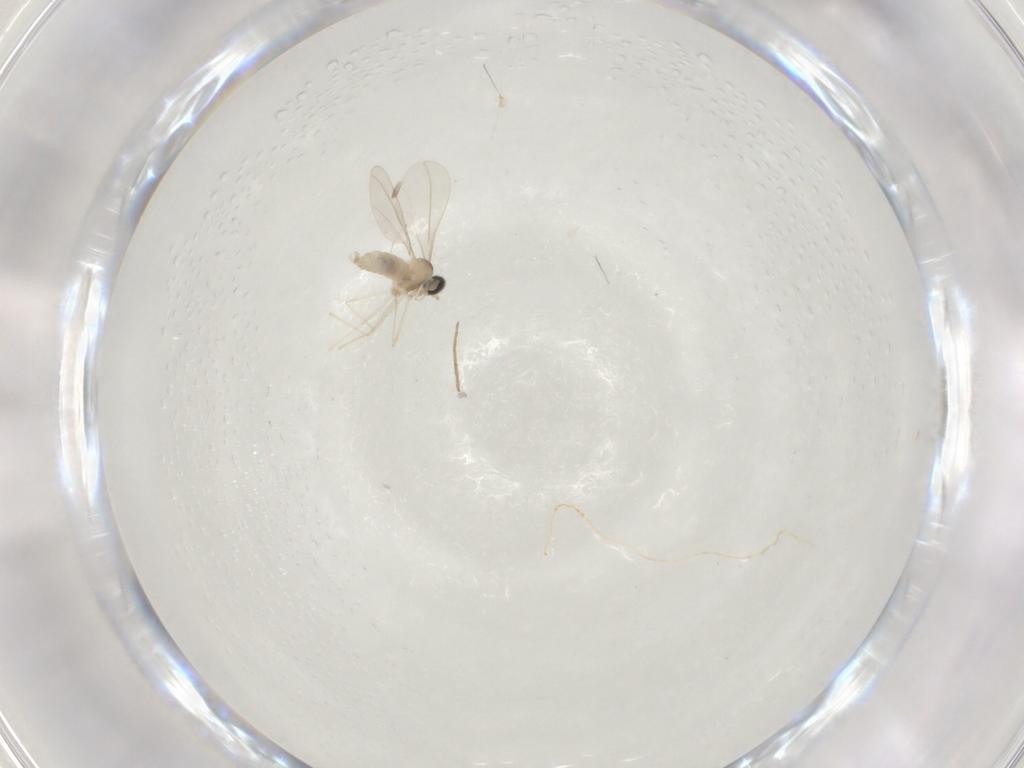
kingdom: Animalia
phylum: Arthropoda
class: Insecta
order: Diptera
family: Cecidomyiidae
